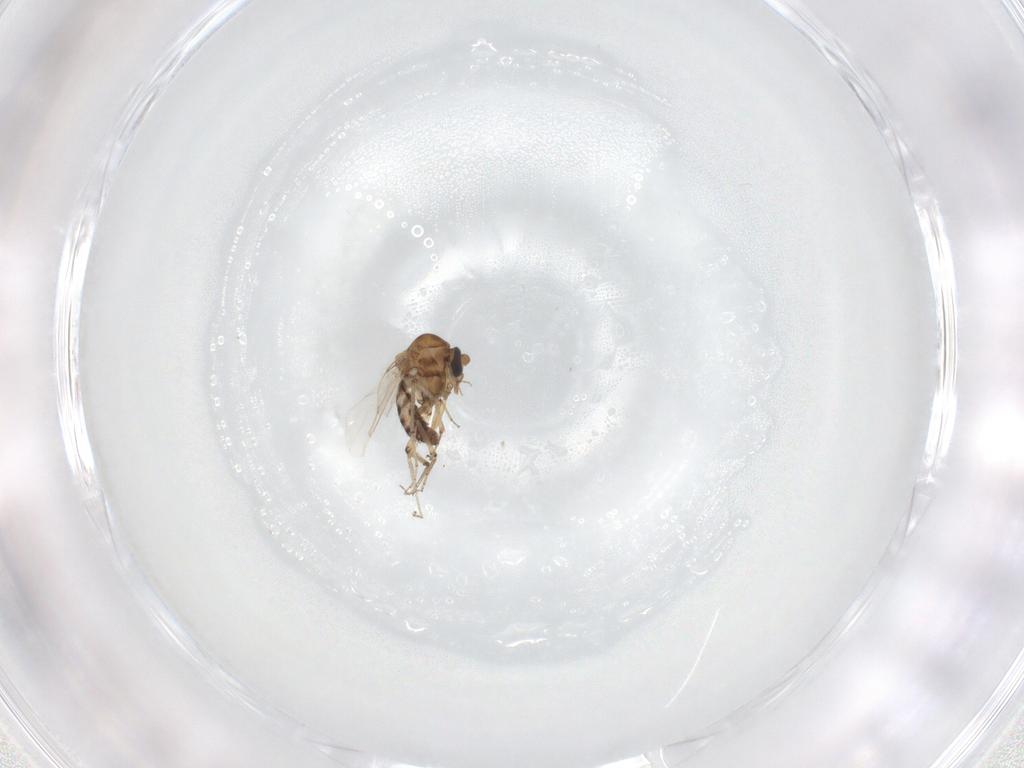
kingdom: Animalia
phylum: Arthropoda
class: Insecta
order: Diptera
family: Ceratopogonidae
